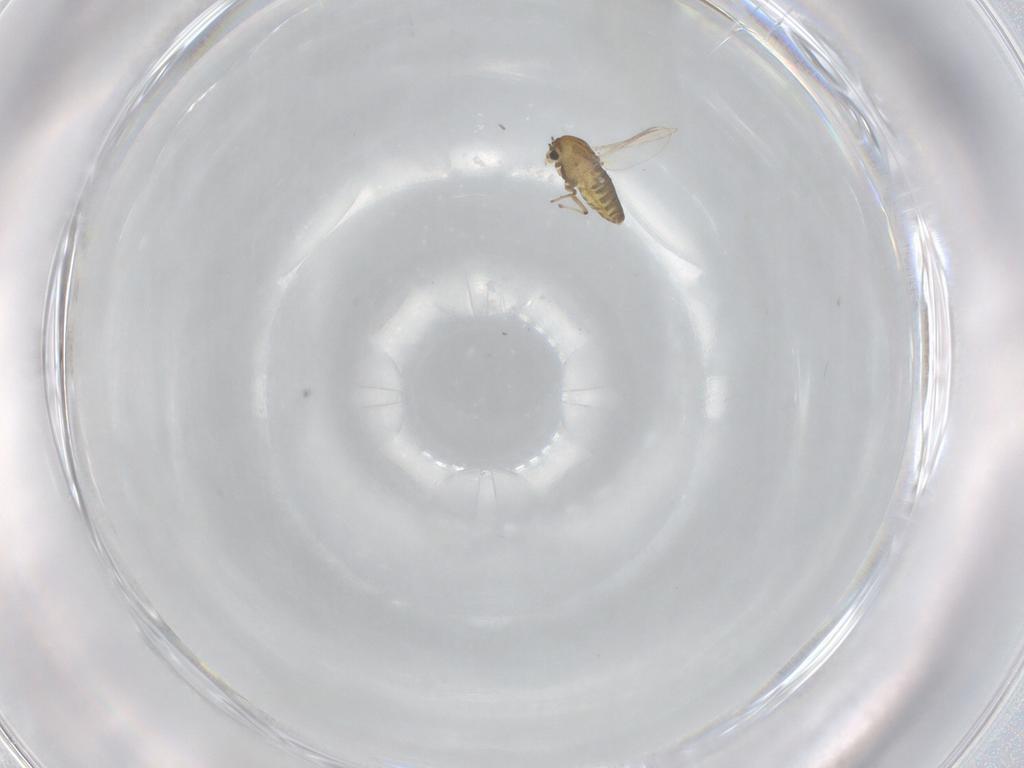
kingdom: Animalia
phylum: Arthropoda
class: Insecta
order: Diptera
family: Chironomidae
